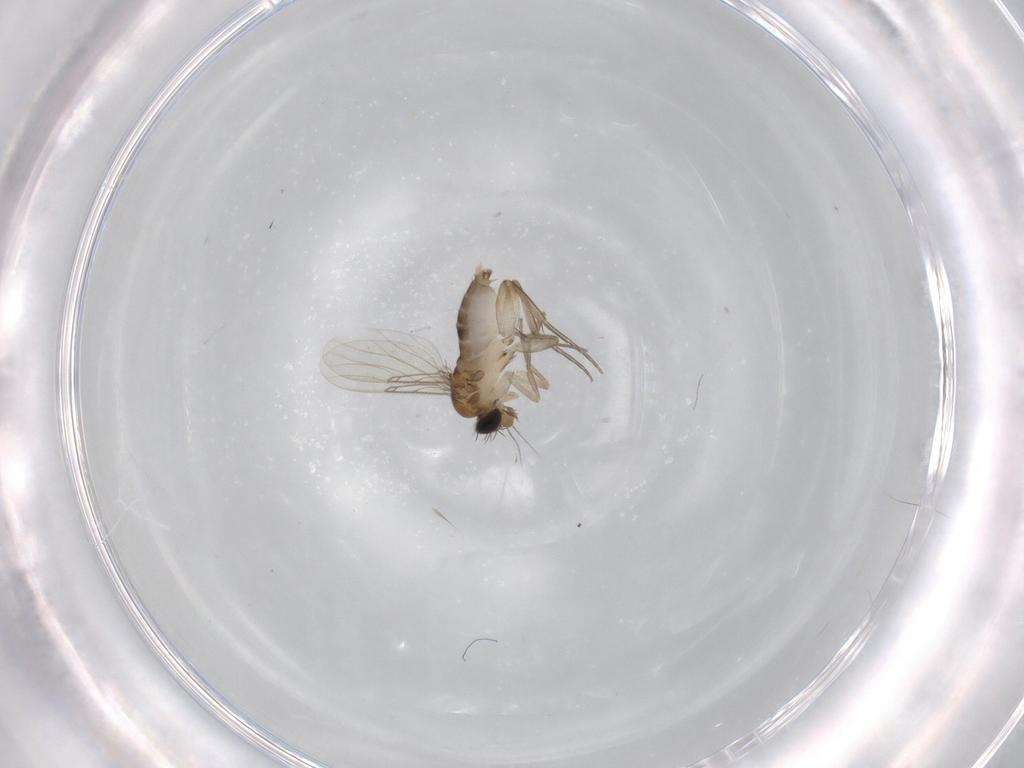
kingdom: Animalia
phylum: Arthropoda
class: Insecta
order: Diptera
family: Phoridae
